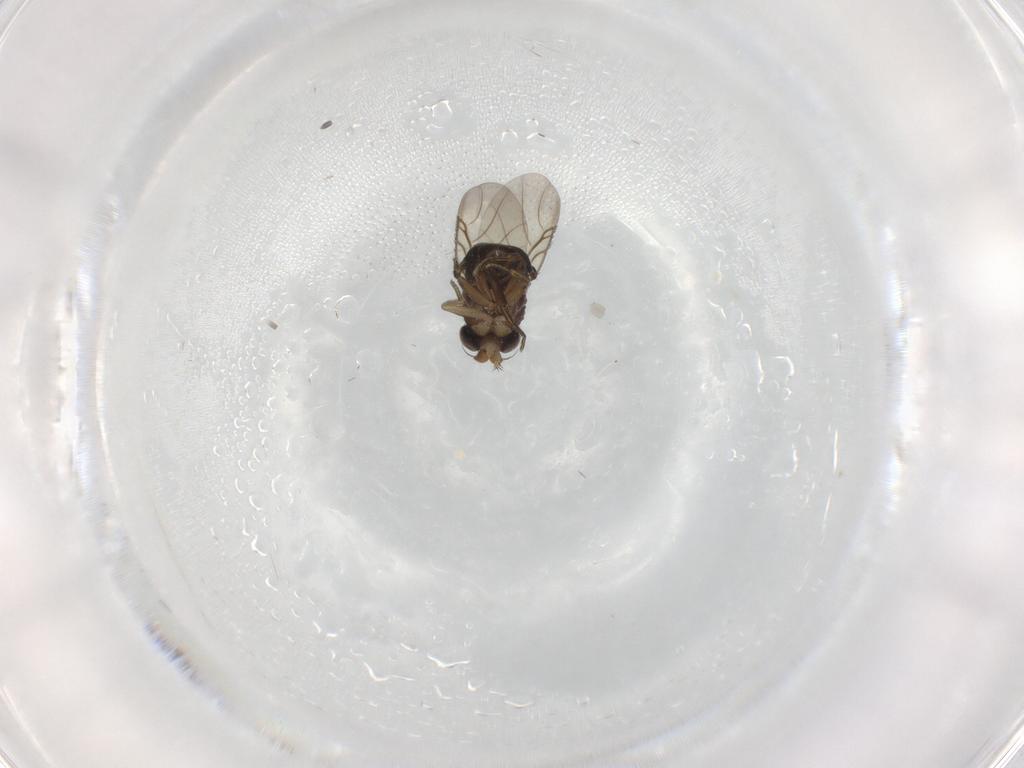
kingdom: Animalia
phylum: Arthropoda
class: Insecta
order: Diptera
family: Phoridae
